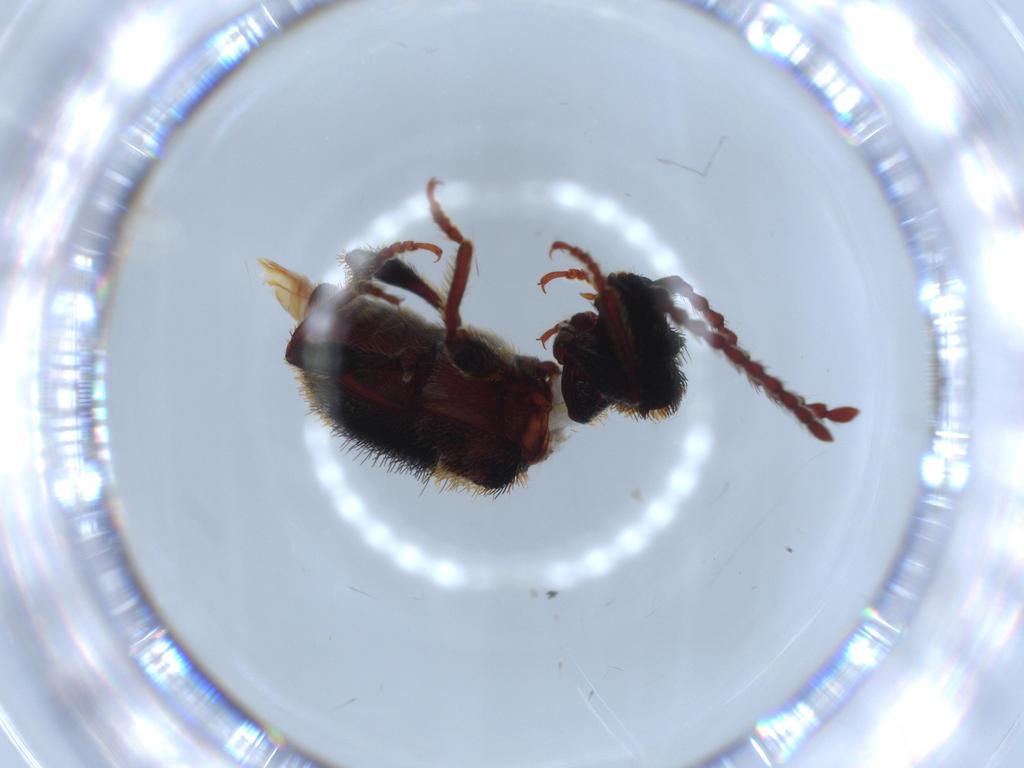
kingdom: Animalia
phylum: Arthropoda
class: Insecta
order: Coleoptera
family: Ptinidae
